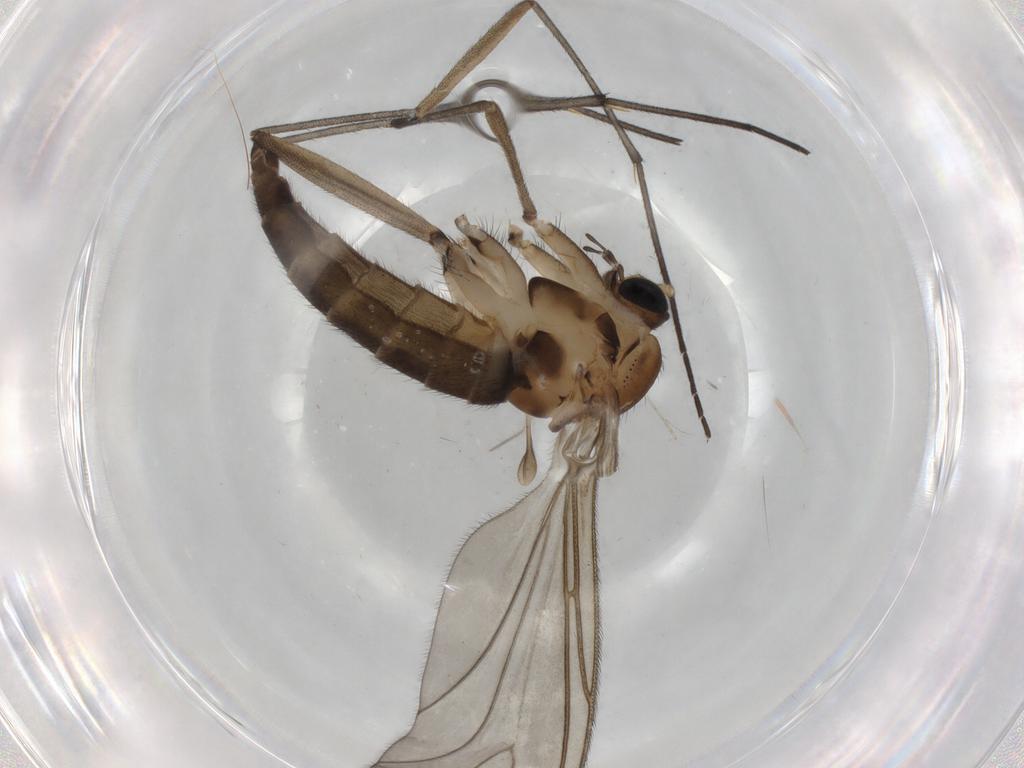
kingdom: Animalia
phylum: Arthropoda
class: Insecta
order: Diptera
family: Sciaridae
